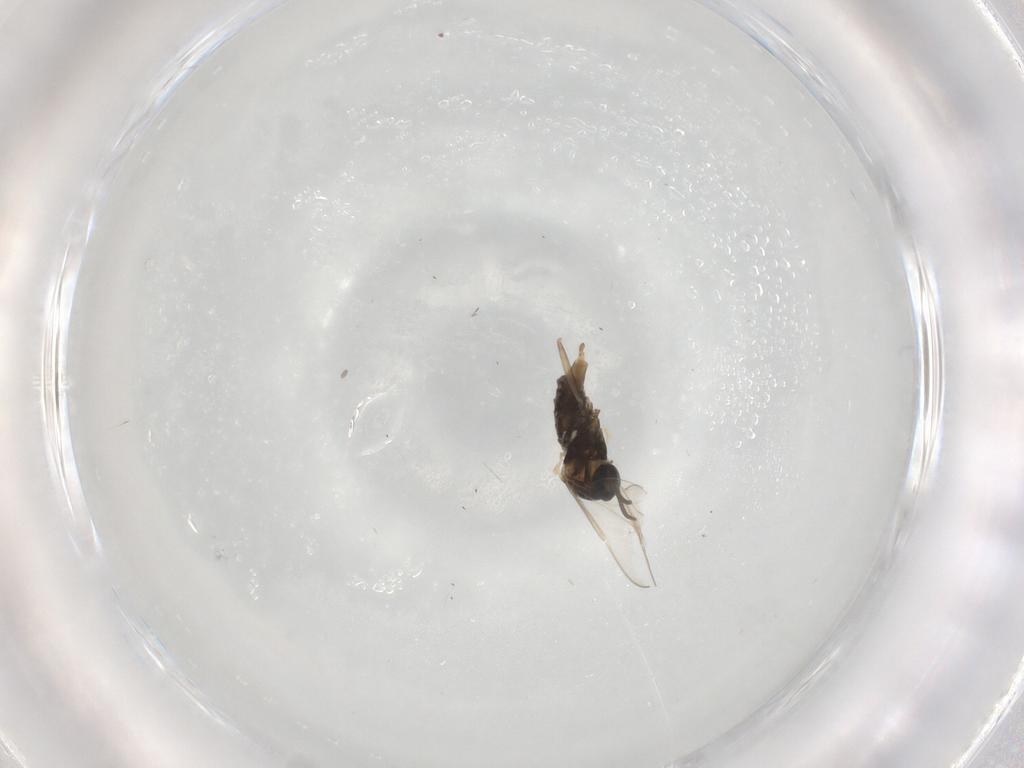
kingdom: Animalia
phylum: Arthropoda
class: Insecta
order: Diptera
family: Cecidomyiidae
